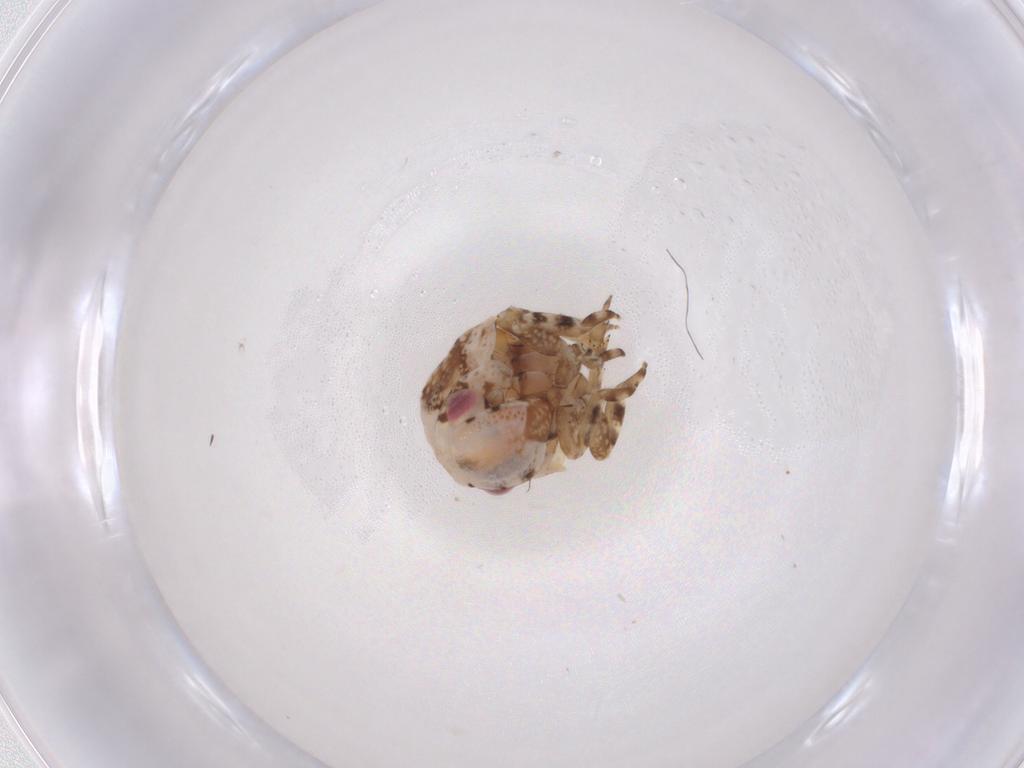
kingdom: Animalia
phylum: Arthropoda
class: Insecta
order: Hemiptera
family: Acanaloniidae
